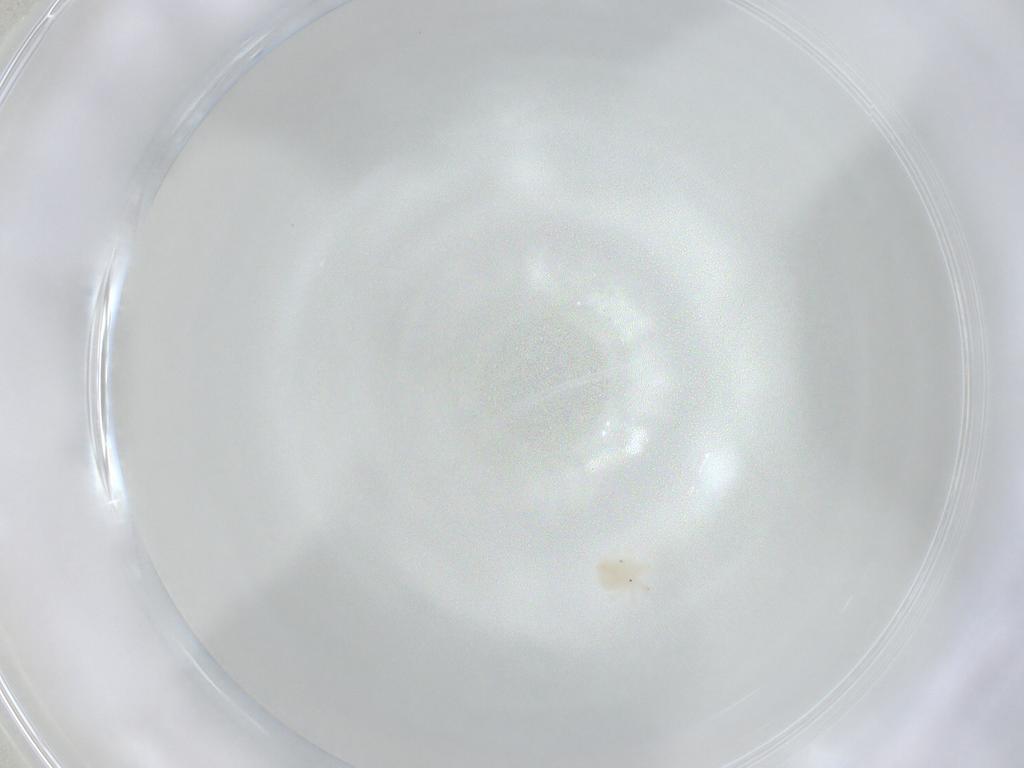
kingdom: Animalia
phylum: Arthropoda
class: Arachnida
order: Trombidiformes
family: Anystidae
